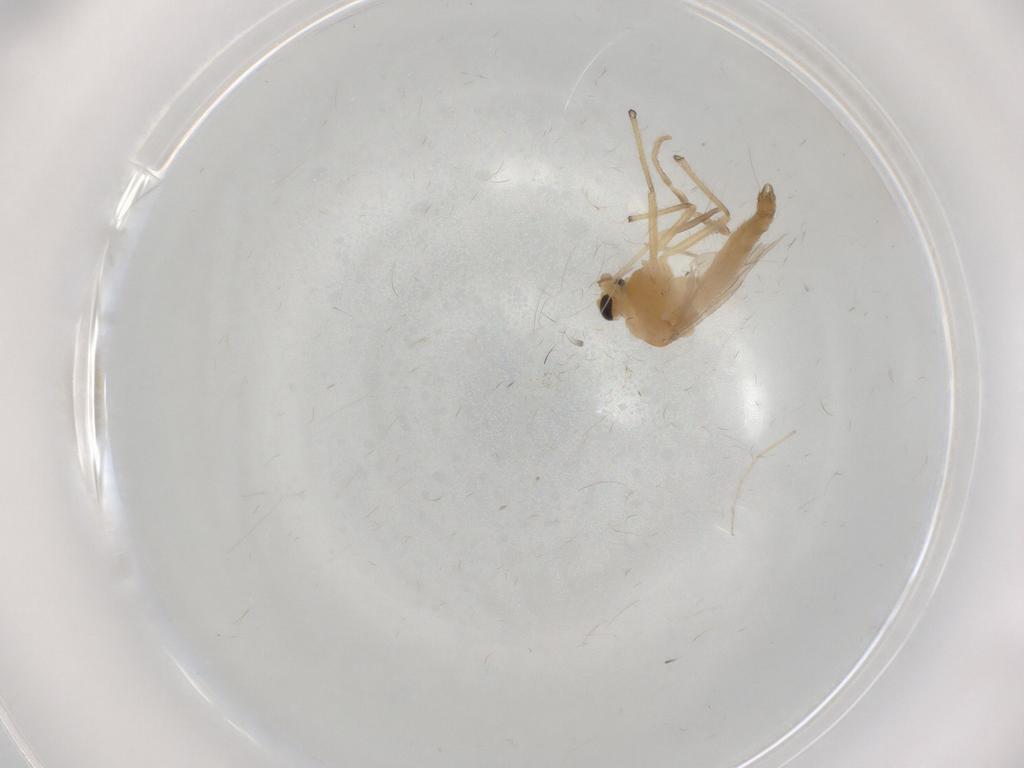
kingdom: Animalia
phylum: Arthropoda
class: Insecta
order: Diptera
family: Chironomidae
